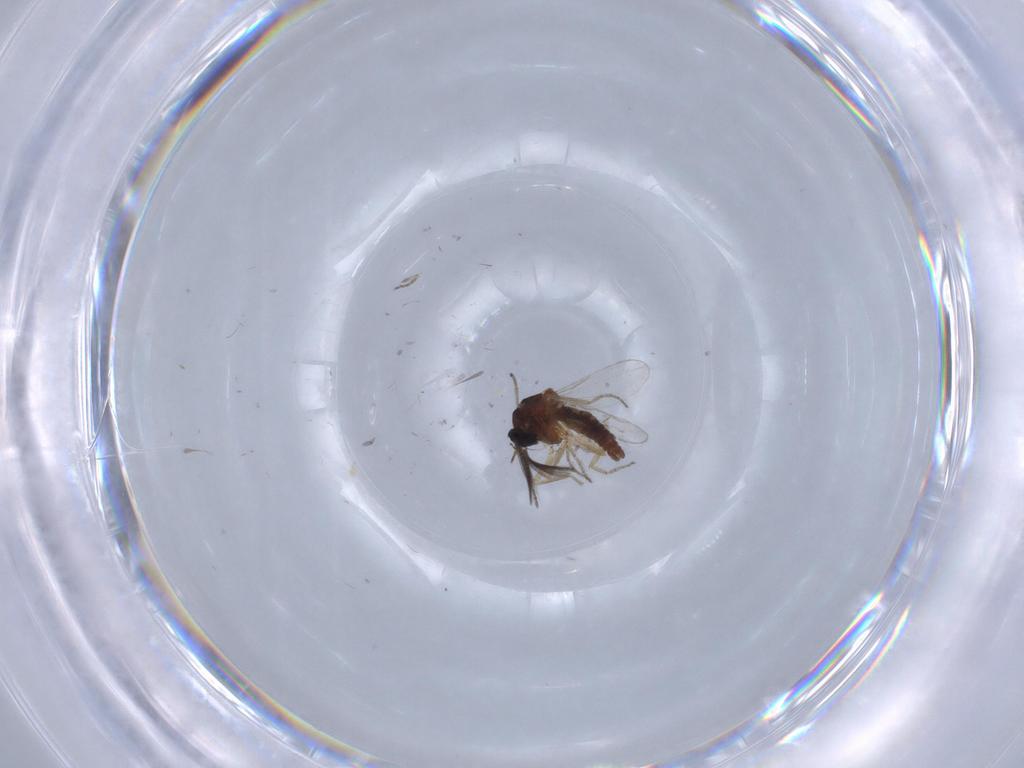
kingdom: Animalia
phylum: Arthropoda
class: Insecta
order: Diptera
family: Ceratopogonidae
